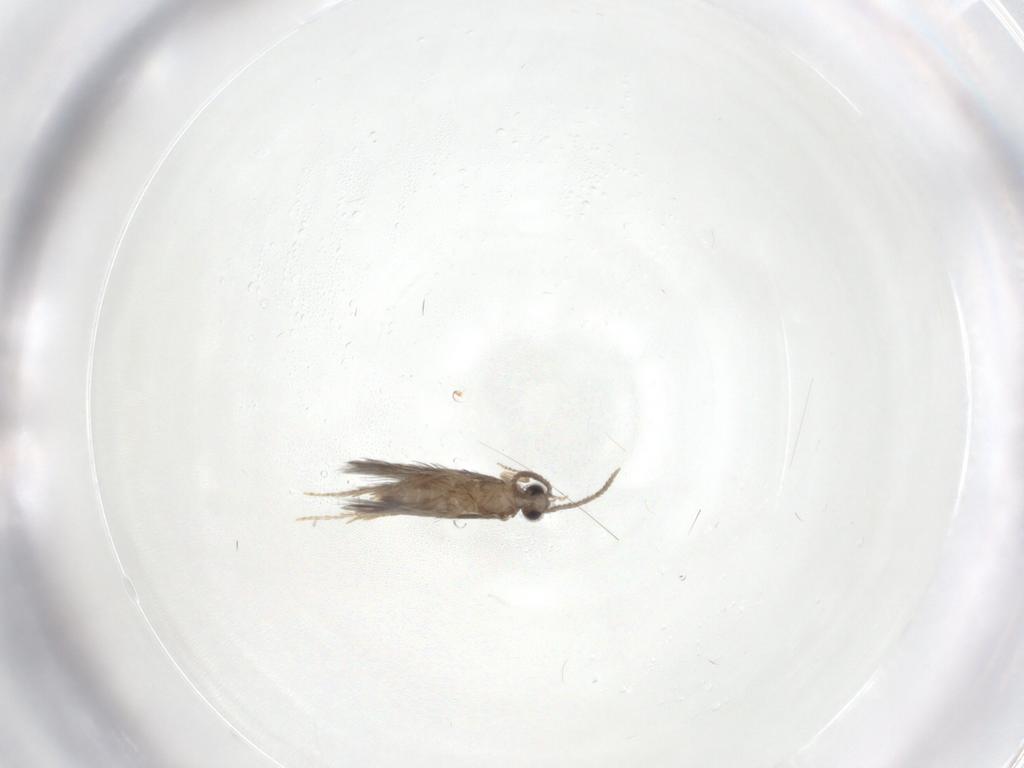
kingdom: Animalia
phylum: Arthropoda
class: Insecta
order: Trichoptera
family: Hydroptilidae
